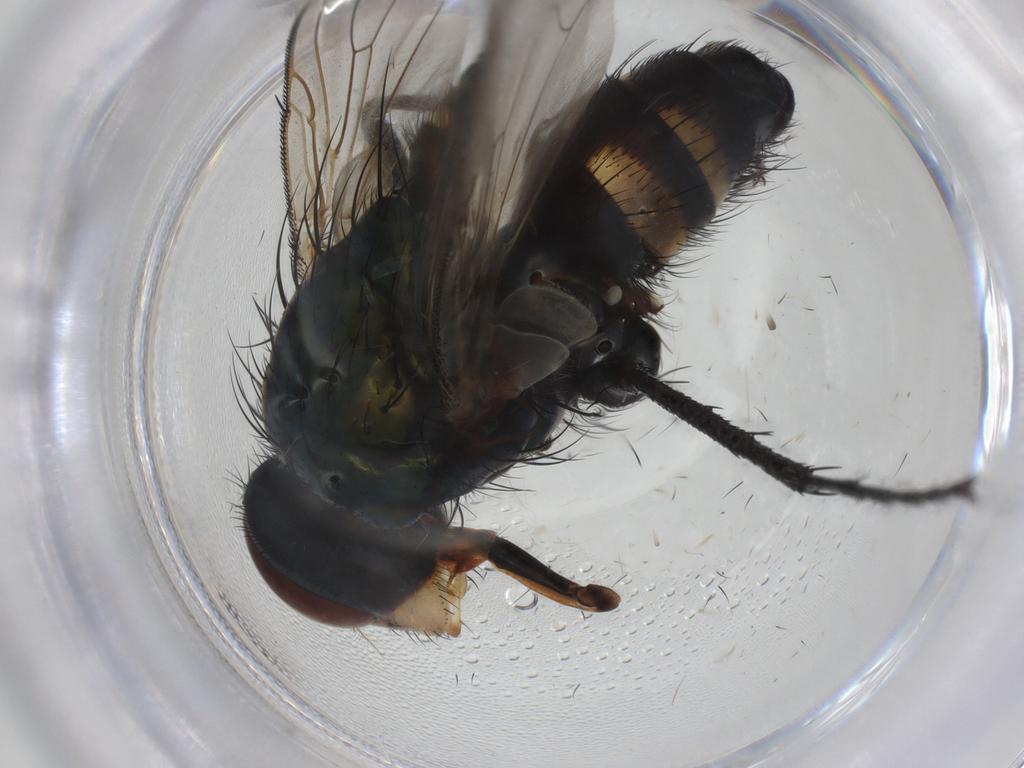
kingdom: Animalia
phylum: Arthropoda
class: Insecta
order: Diptera
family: Calliphoridae
